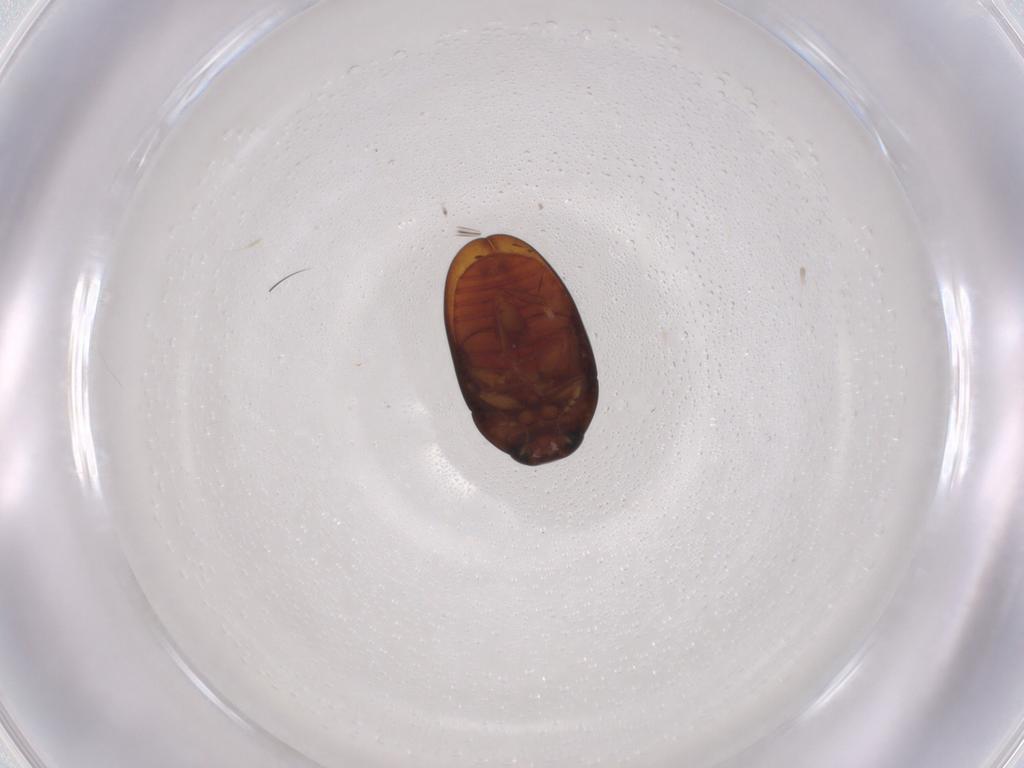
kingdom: Animalia
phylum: Arthropoda
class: Insecta
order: Coleoptera
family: Phalacridae
